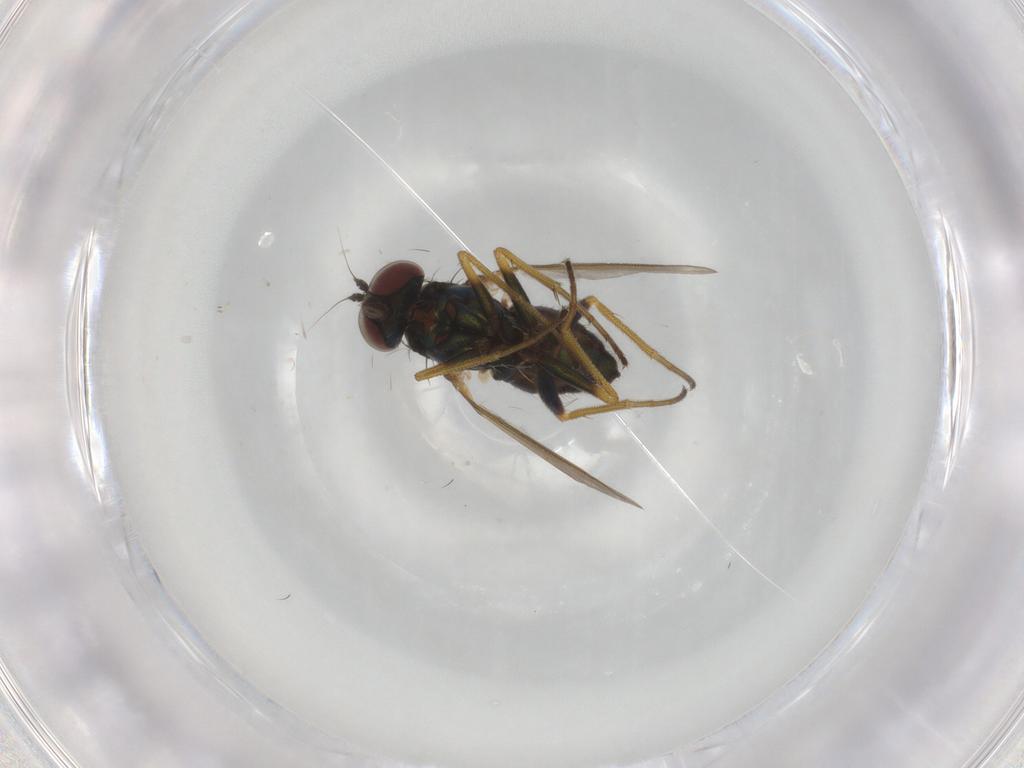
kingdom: Animalia
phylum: Arthropoda
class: Insecta
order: Diptera
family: Dolichopodidae
